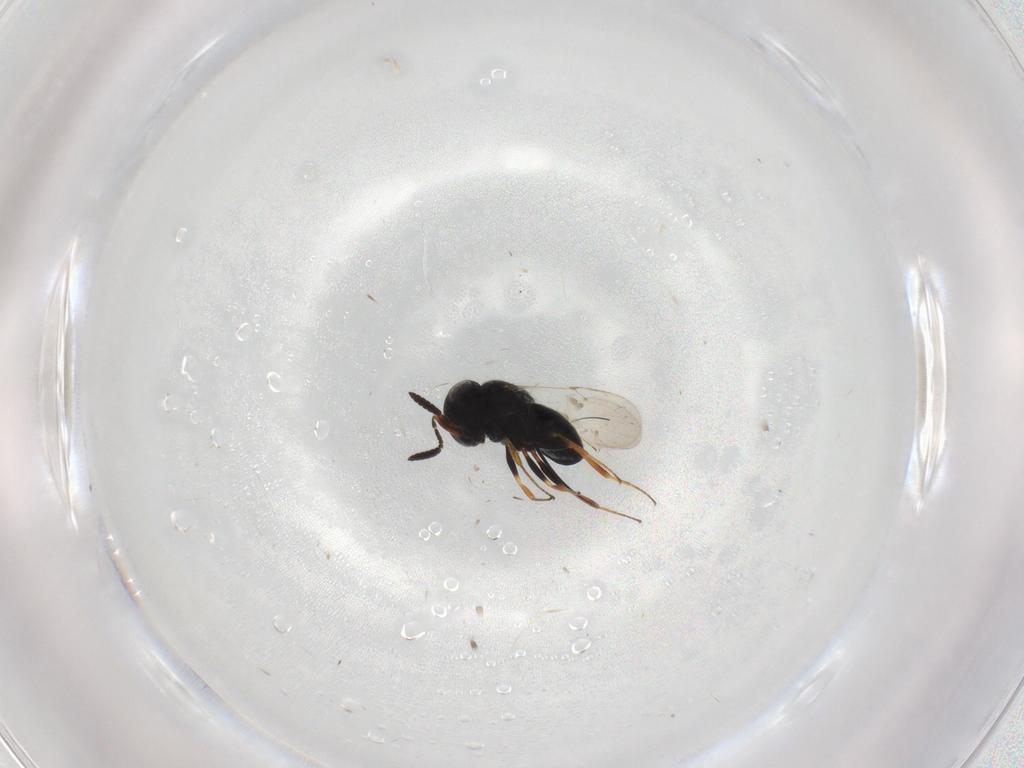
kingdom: Animalia
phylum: Arthropoda
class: Insecta
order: Coleoptera
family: Curculionidae
